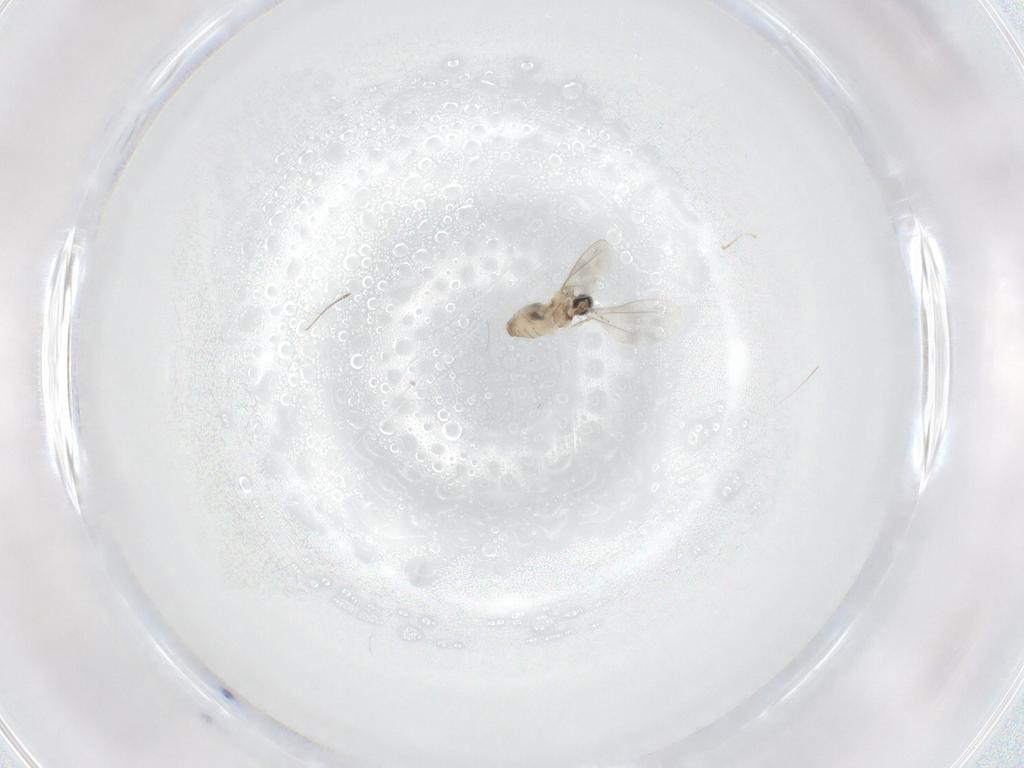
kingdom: Animalia
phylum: Arthropoda
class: Insecta
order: Diptera
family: Chironomidae
